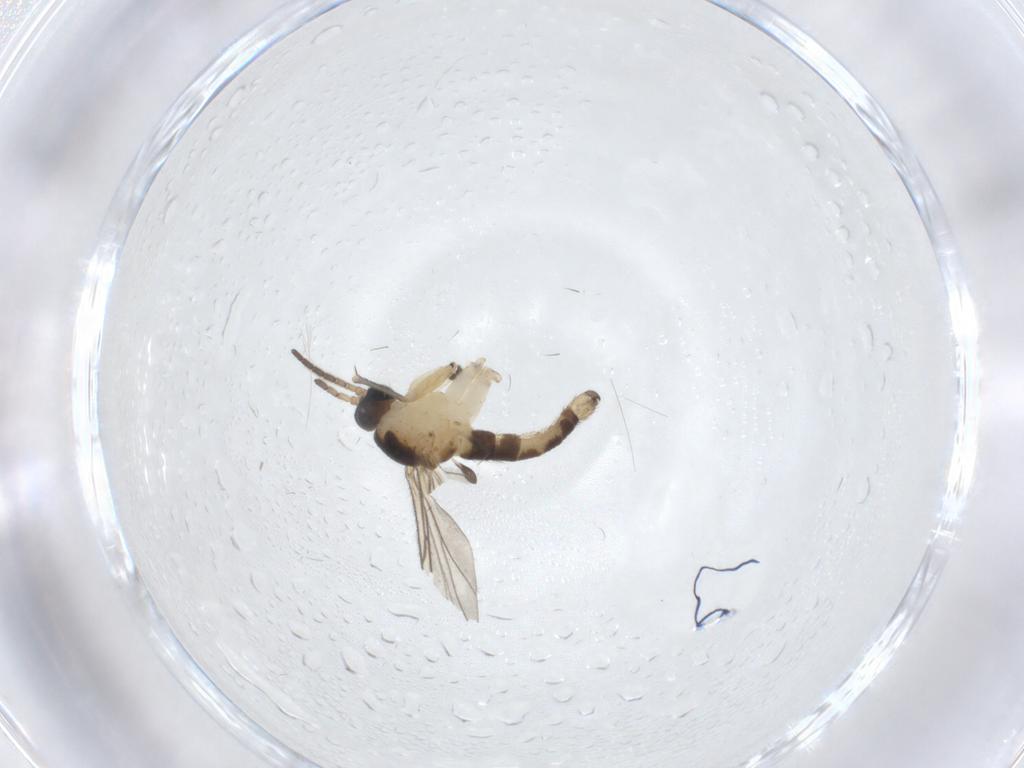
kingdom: Animalia
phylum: Arthropoda
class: Insecta
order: Diptera
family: Sciaridae
